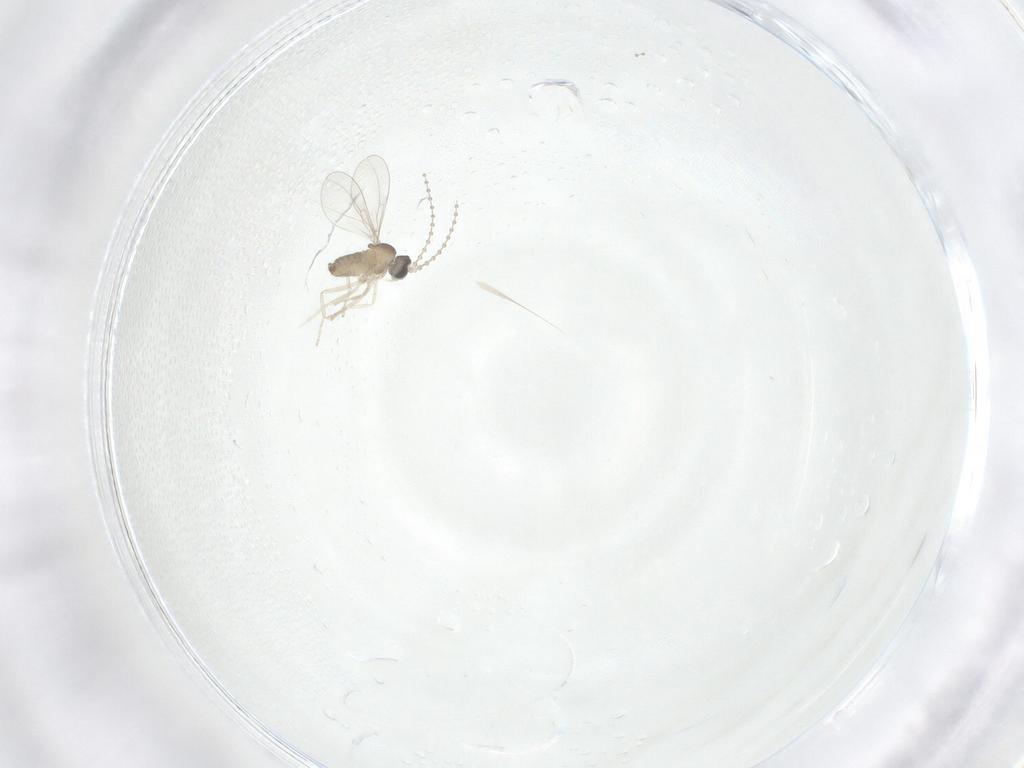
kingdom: Animalia
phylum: Arthropoda
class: Insecta
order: Diptera
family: Cecidomyiidae
